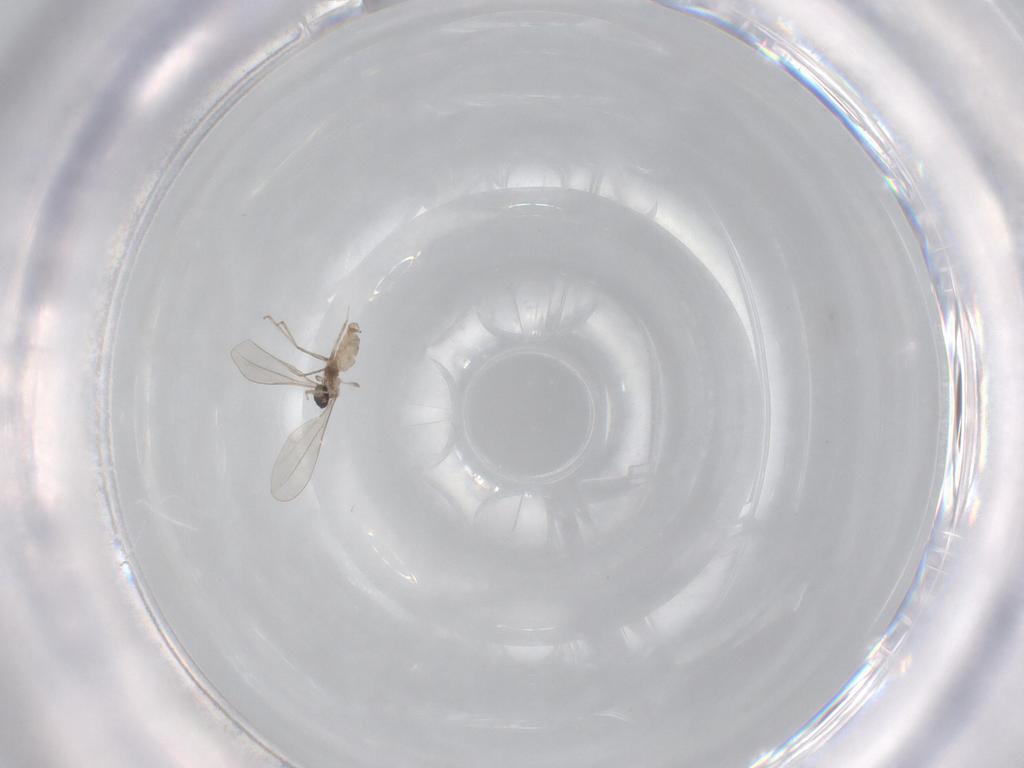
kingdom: Animalia
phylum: Arthropoda
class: Insecta
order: Diptera
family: Cecidomyiidae
